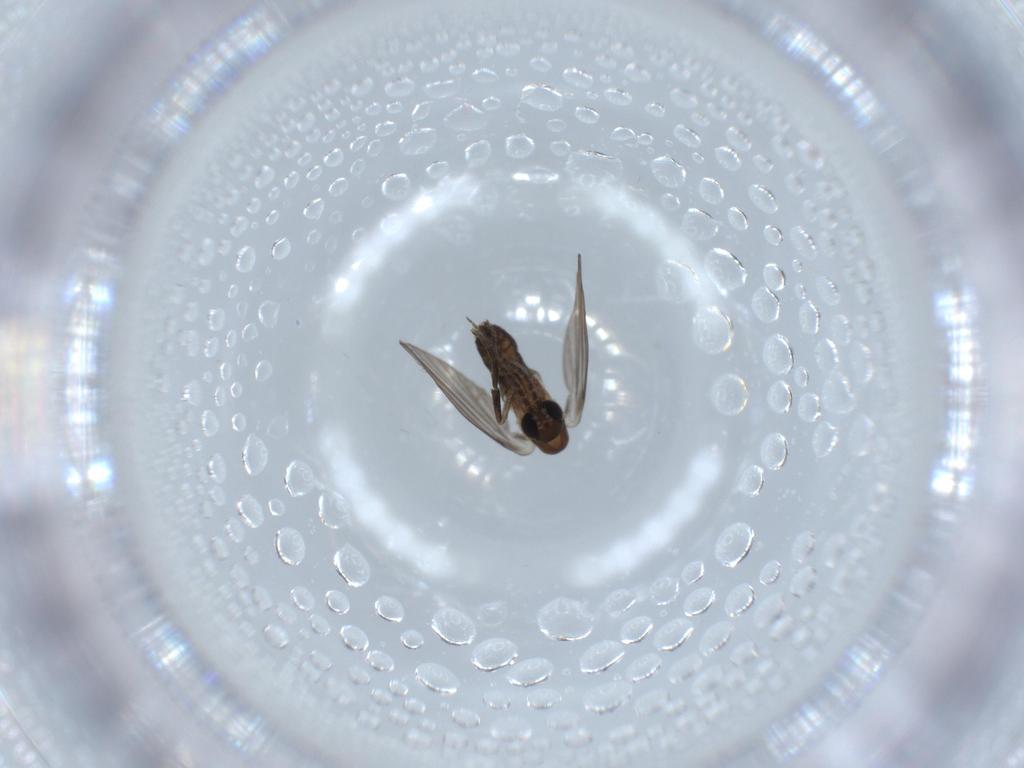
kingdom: Animalia
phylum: Arthropoda
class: Insecta
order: Diptera
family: Psychodidae
